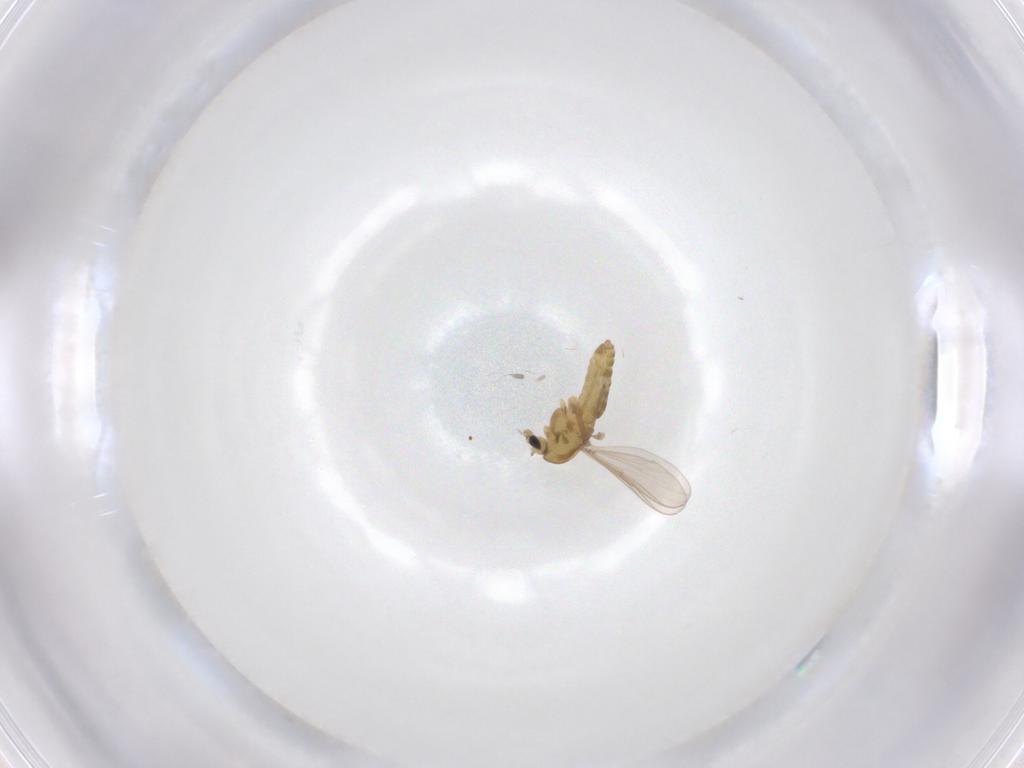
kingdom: Animalia
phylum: Arthropoda
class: Insecta
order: Diptera
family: Chironomidae
